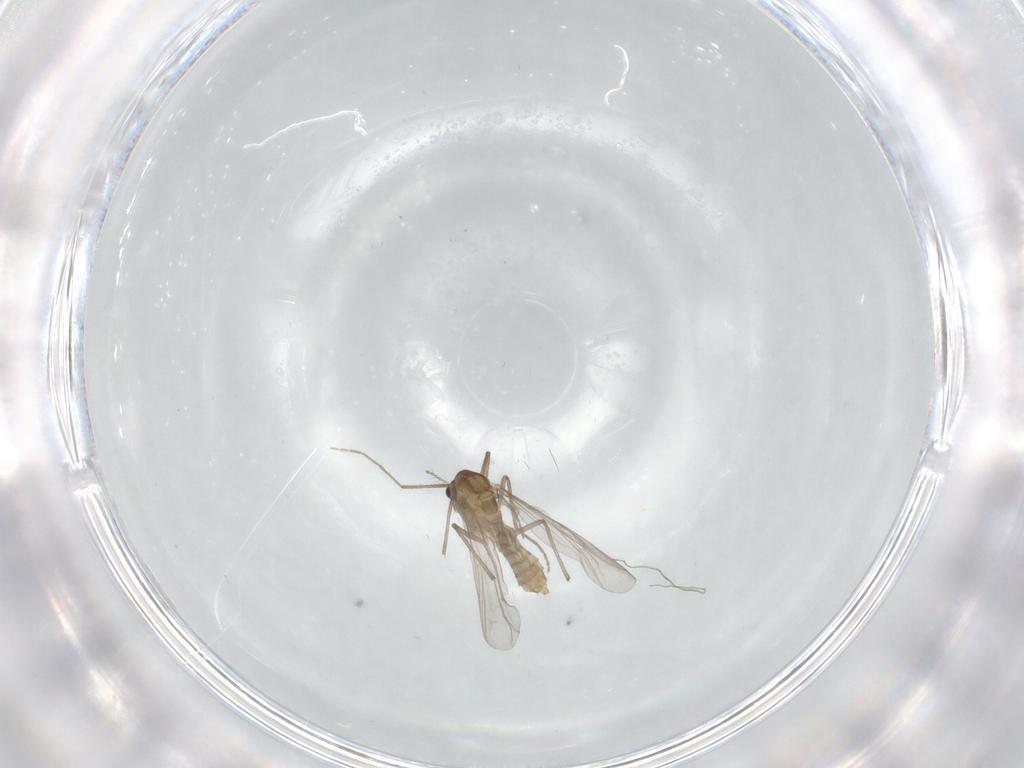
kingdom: Animalia
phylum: Arthropoda
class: Insecta
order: Diptera
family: Chironomidae
